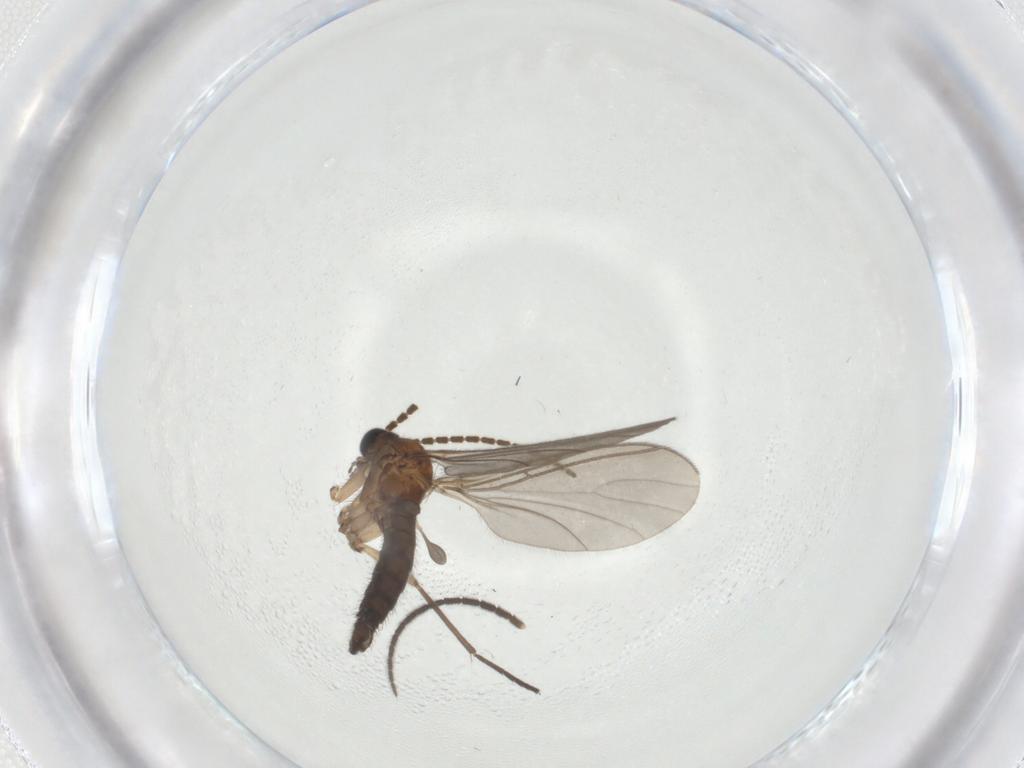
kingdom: Animalia
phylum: Arthropoda
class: Insecta
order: Diptera
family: Sciaridae
